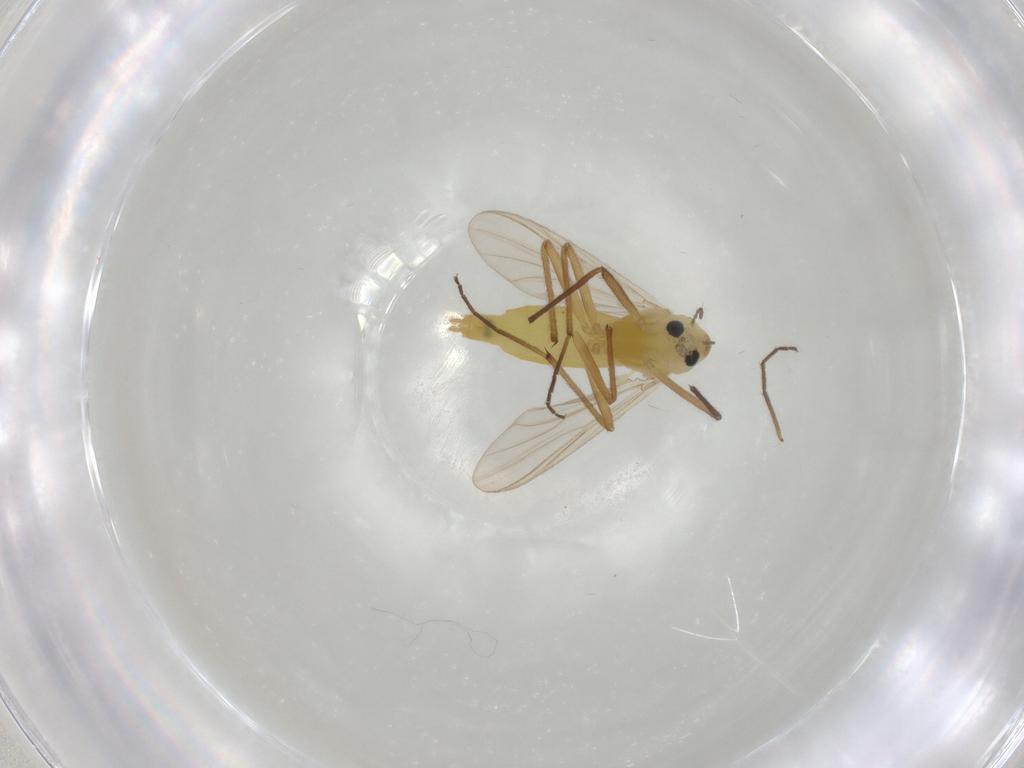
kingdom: Animalia
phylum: Arthropoda
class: Insecta
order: Diptera
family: Chironomidae
